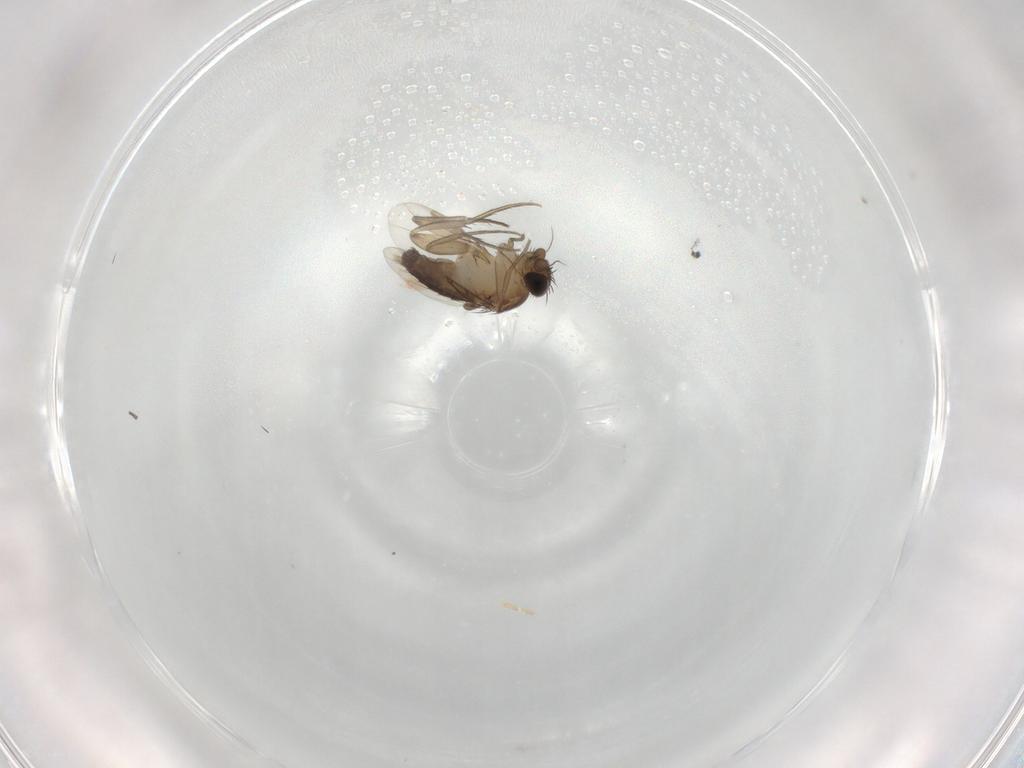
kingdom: Animalia
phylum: Arthropoda
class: Insecta
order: Diptera
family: Phoridae
